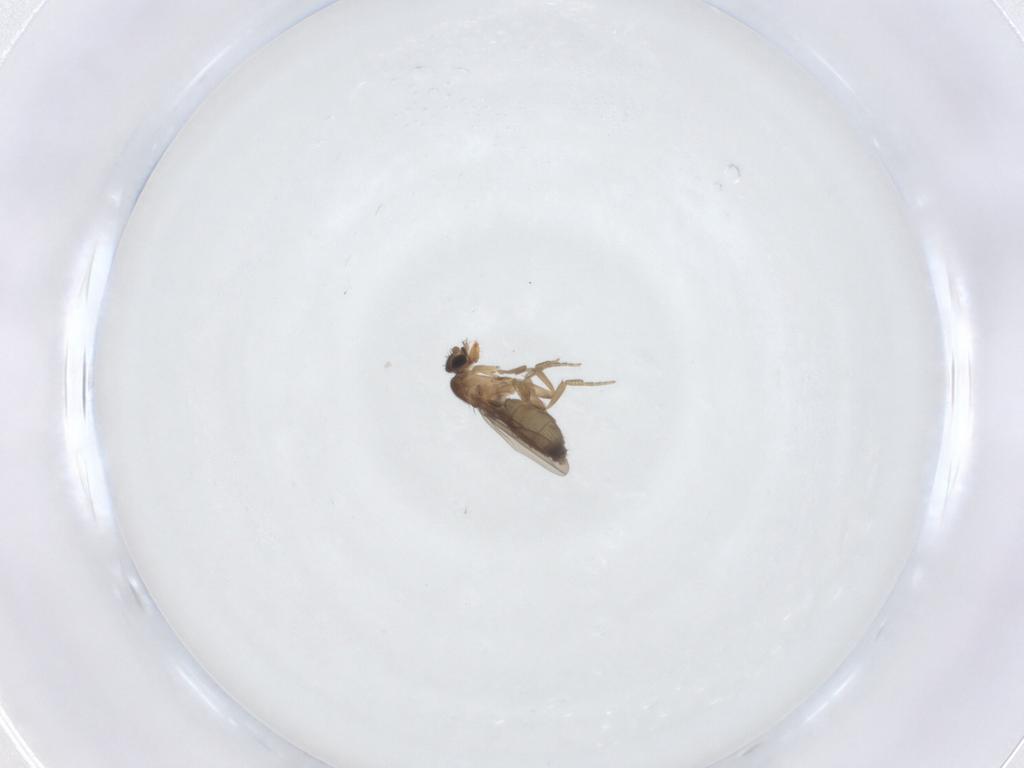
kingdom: Animalia
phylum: Arthropoda
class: Insecta
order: Diptera
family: Phoridae
